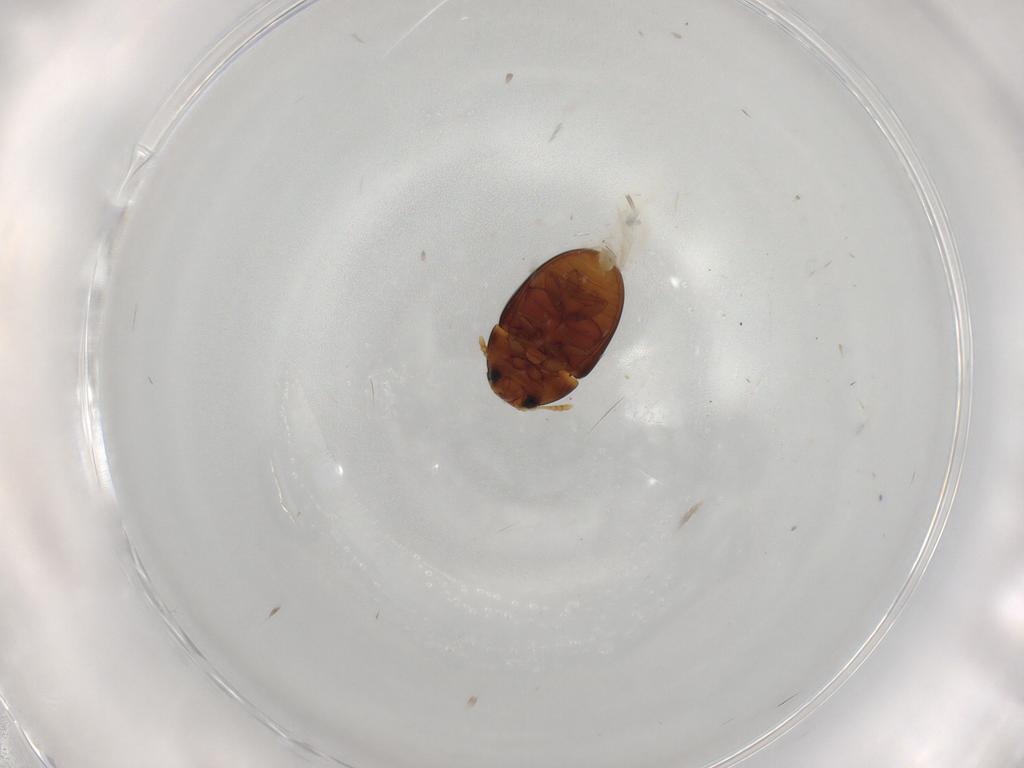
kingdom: Animalia
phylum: Arthropoda
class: Insecta
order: Coleoptera
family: Phalacridae
